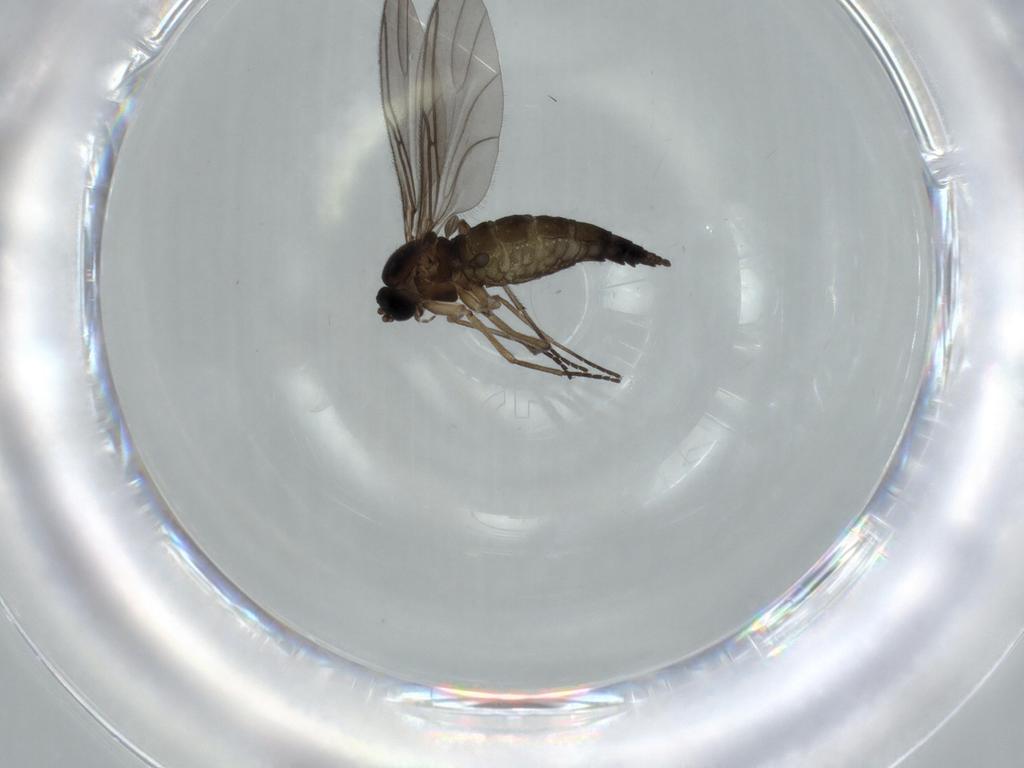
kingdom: Animalia
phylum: Arthropoda
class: Insecta
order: Diptera
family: Sciaridae
